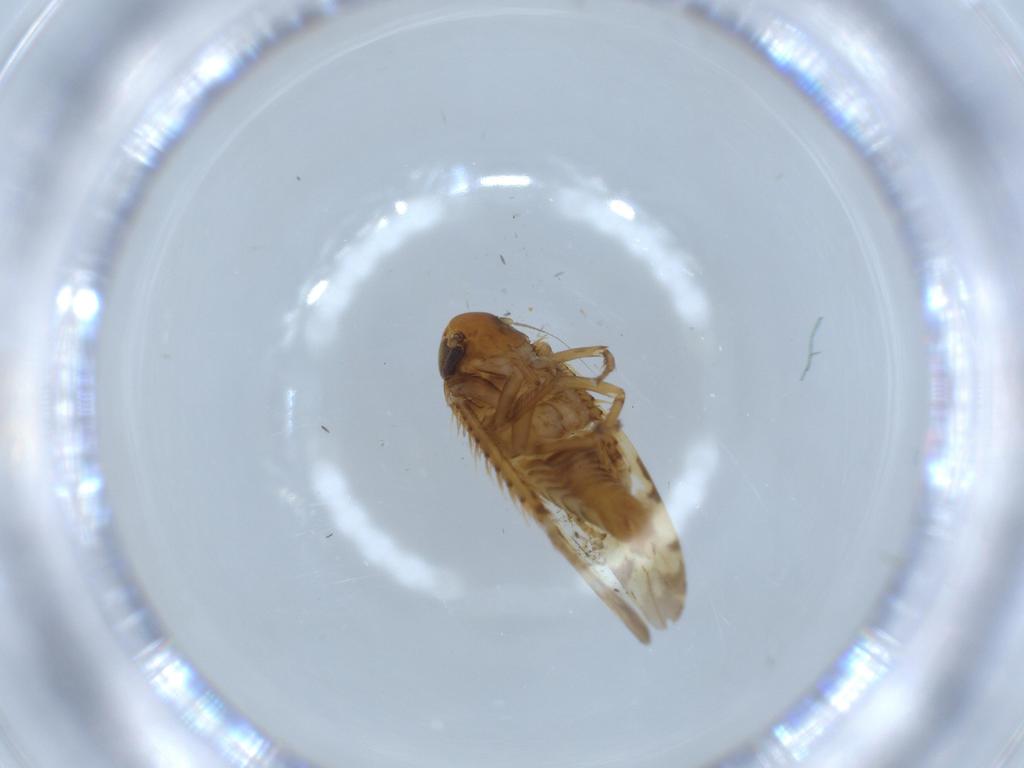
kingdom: Animalia
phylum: Arthropoda
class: Insecta
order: Hemiptera
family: Cicadellidae
